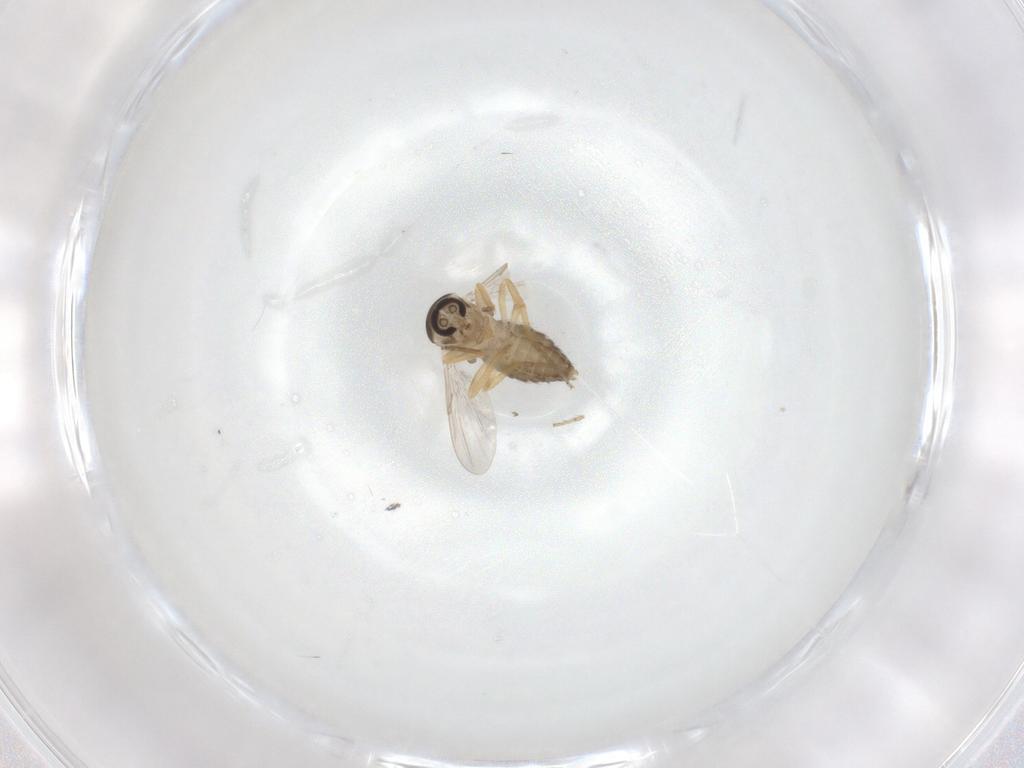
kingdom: Animalia
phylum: Arthropoda
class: Insecta
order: Diptera
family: Ceratopogonidae
